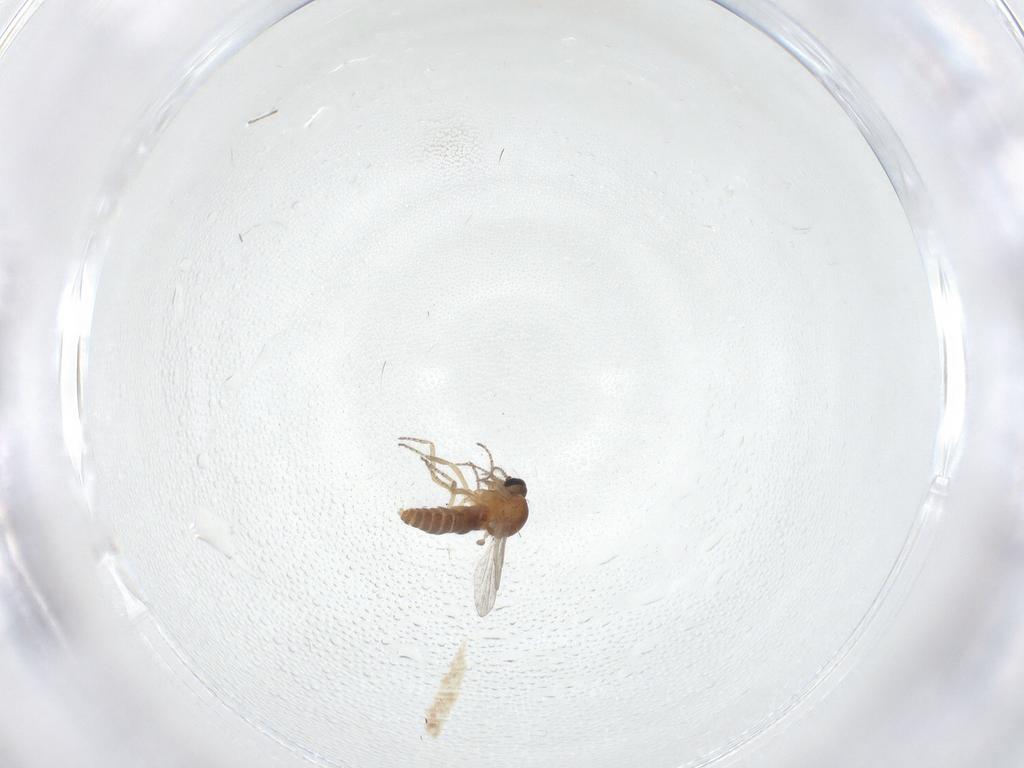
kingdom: Animalia
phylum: Arthropoda
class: Insecta
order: Diptera
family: Ceratopogonidae
